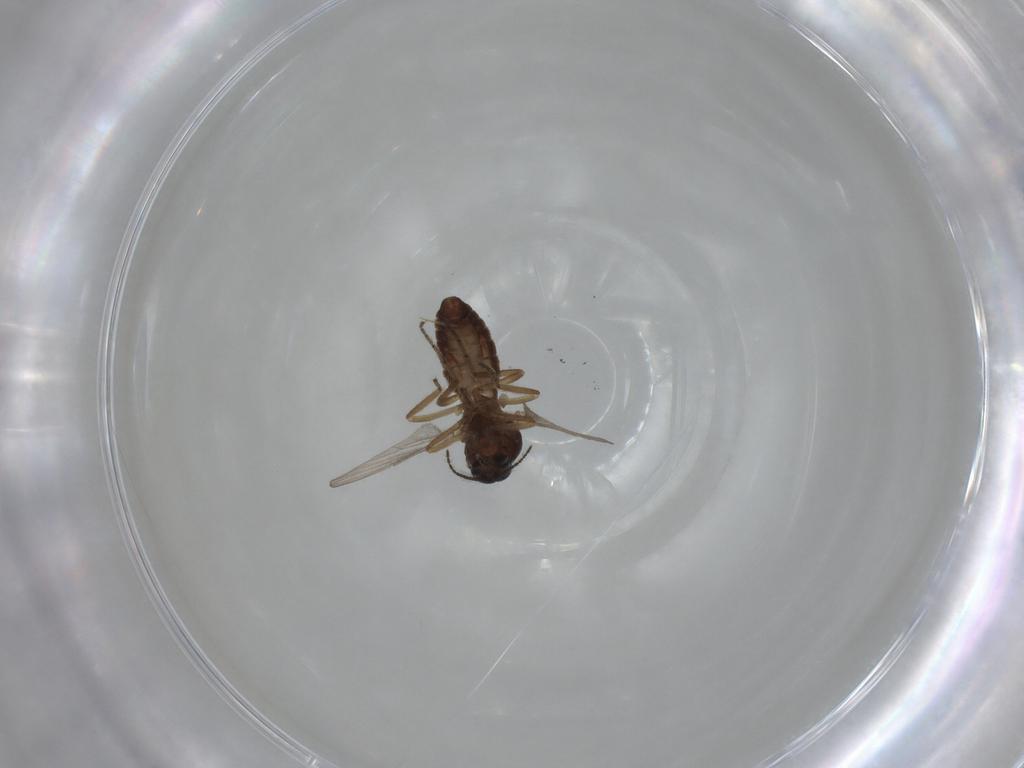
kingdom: Animalia
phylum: Arthropoda
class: Insecta
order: Diptera
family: Ceratopogonidae
